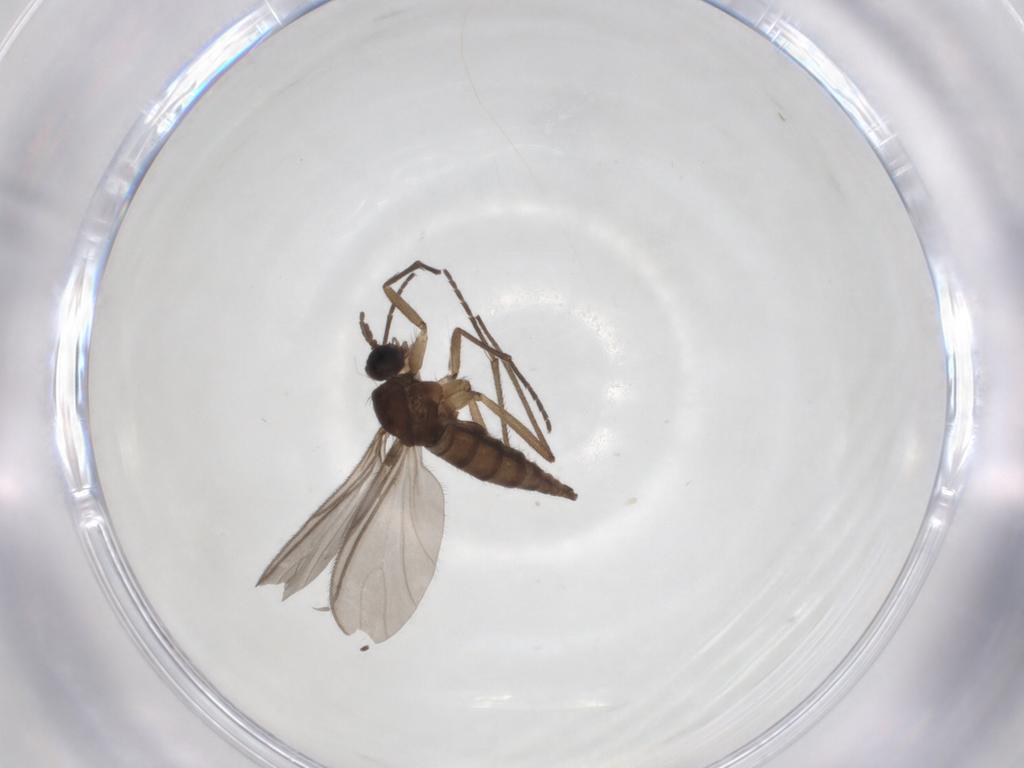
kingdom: Animalia
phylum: Arthropoda
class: Insecta
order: Diptera
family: Sciaridae
